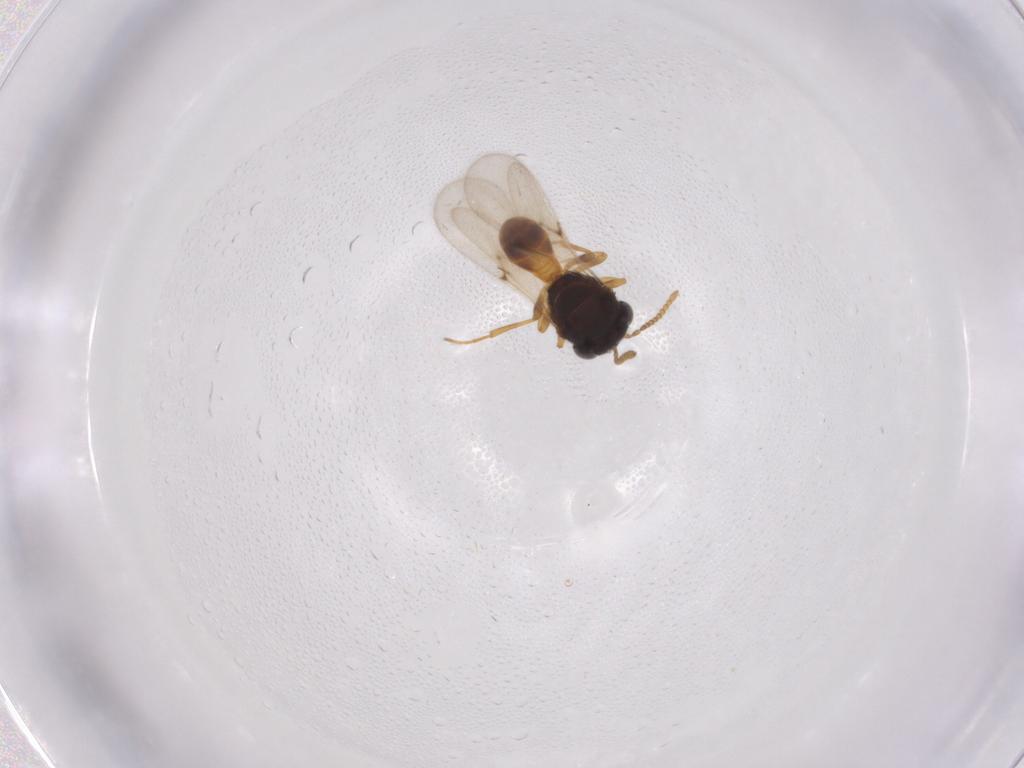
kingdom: Animalia
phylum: Arthropoda
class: Insecta
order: Hymenoptera
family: Scelionidae
